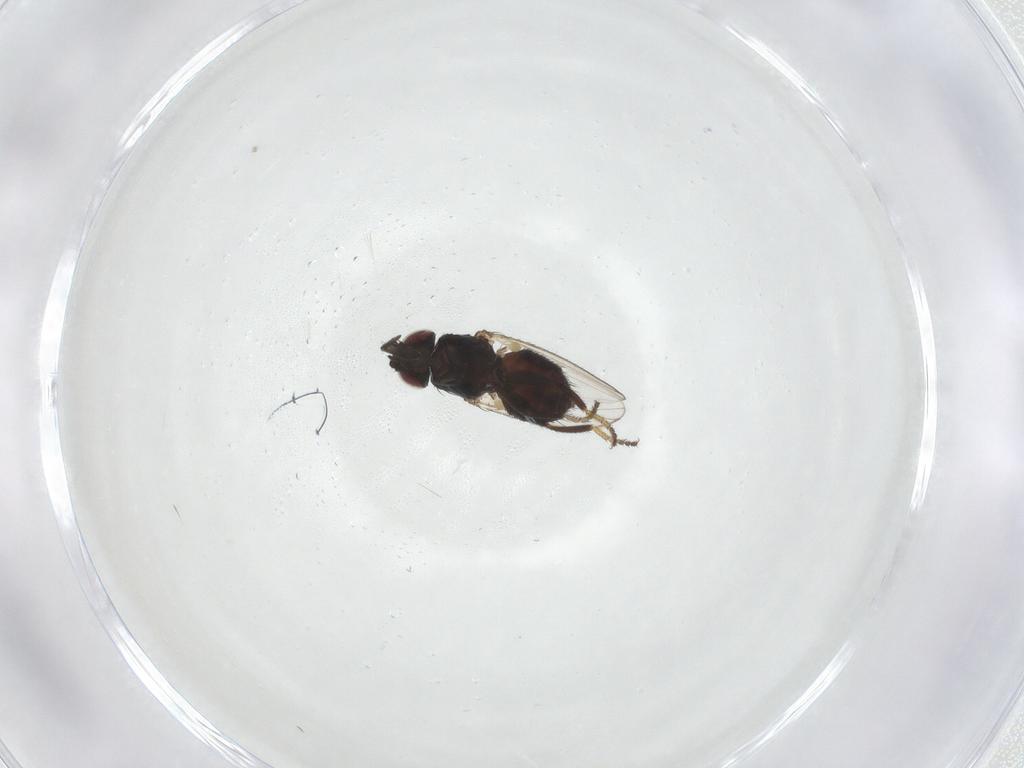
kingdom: Animalia
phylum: Arthropoda
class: Insecta
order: Diptera
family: Milichiidae
